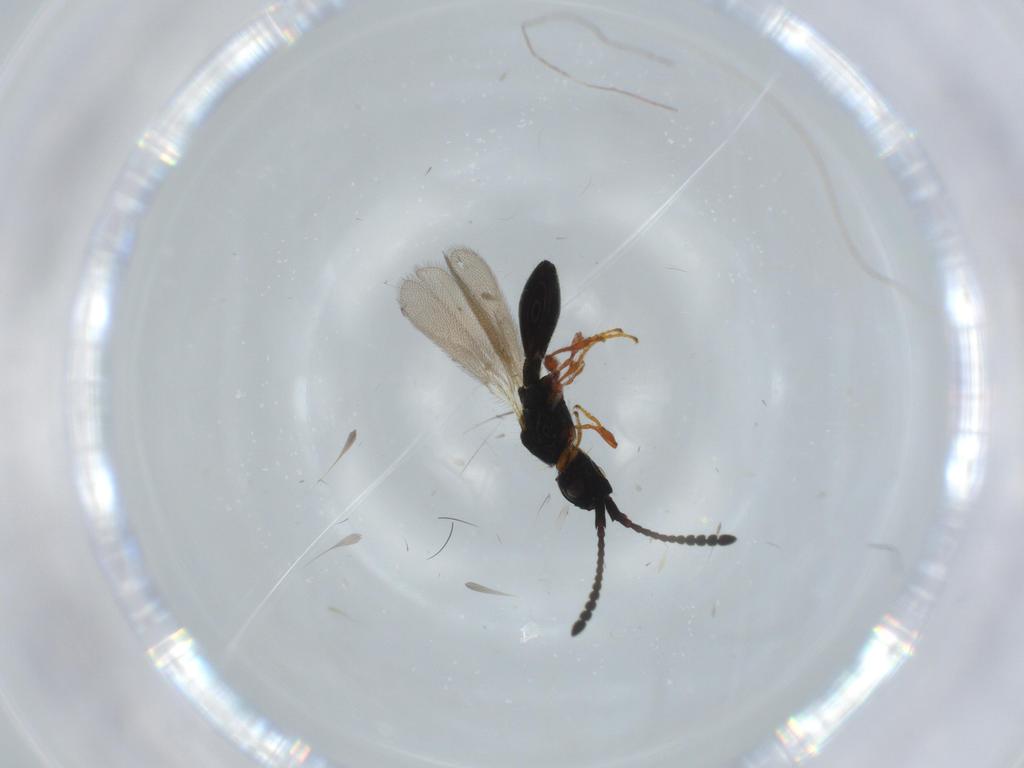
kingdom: Animalia
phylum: Arthropoda
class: Insecta
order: Hymenoptera
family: Diapriidae
